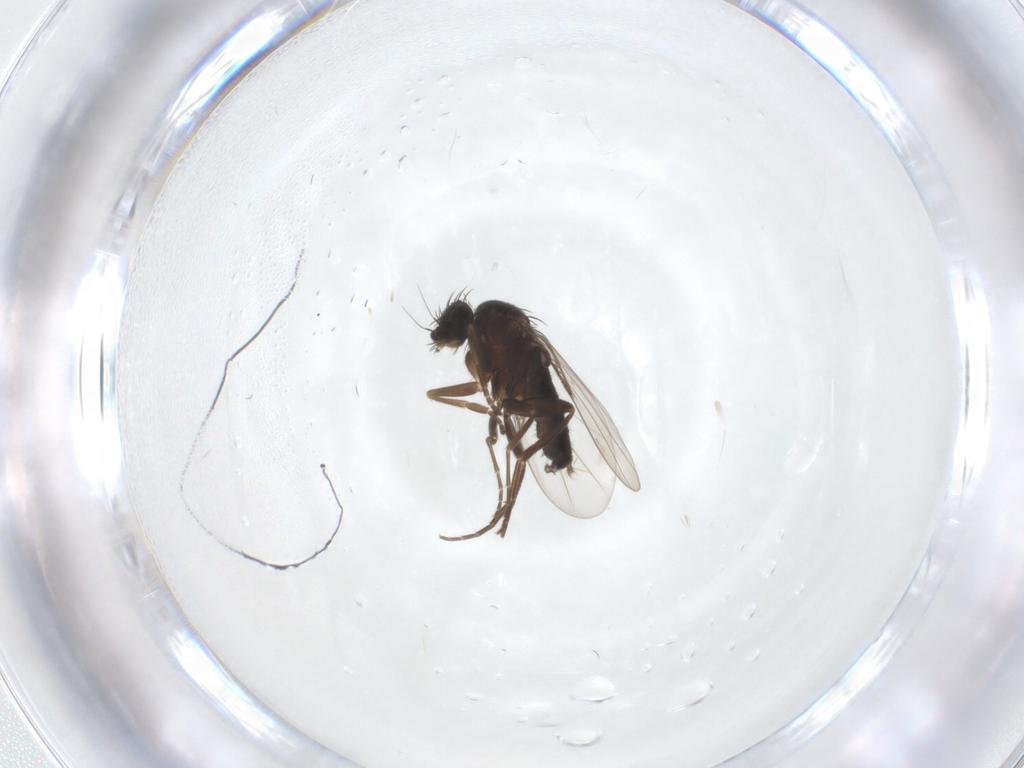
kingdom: Animalia
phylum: Arthropoda
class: Insecta
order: Diptera
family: Phoridae
